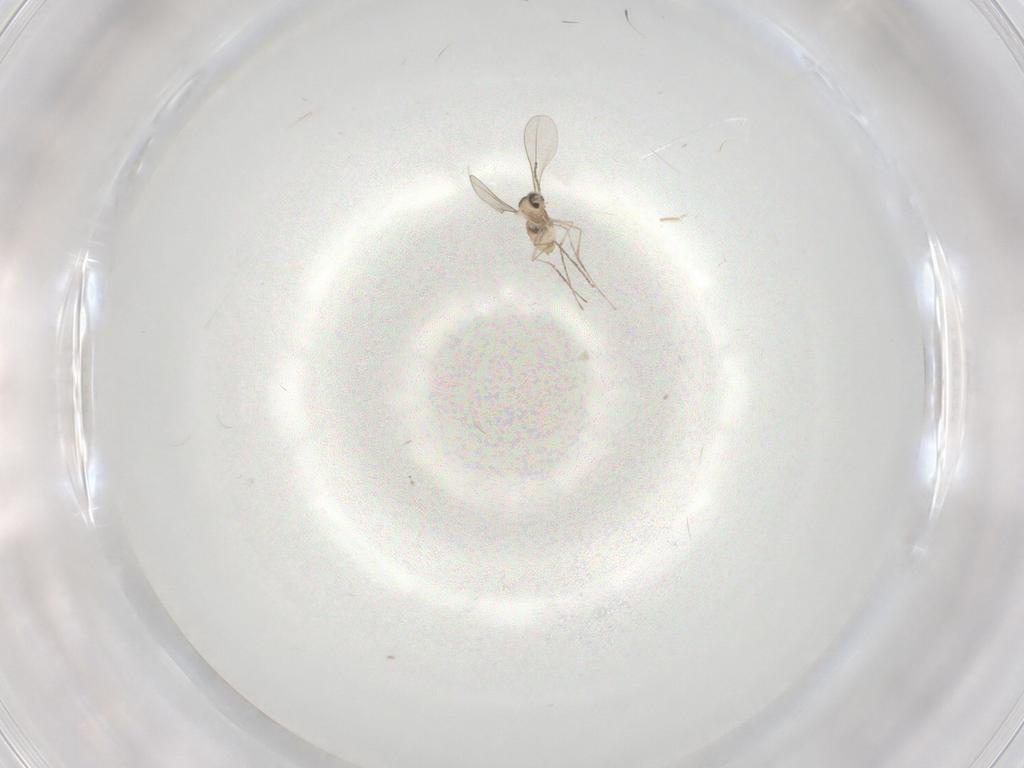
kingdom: Animalia
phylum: Arthropoda
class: Insecta
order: Diptera
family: Cecidomyiidae
